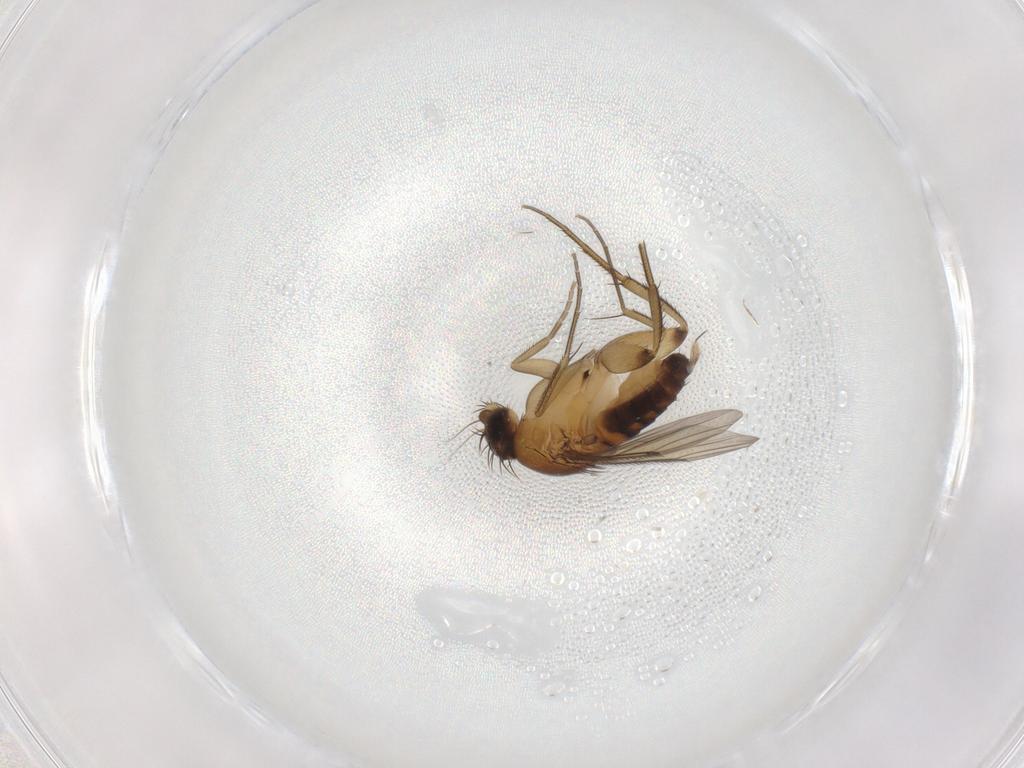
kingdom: Animalia
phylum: Arthropoda
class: Insecta
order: Diptera
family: Phoridae
